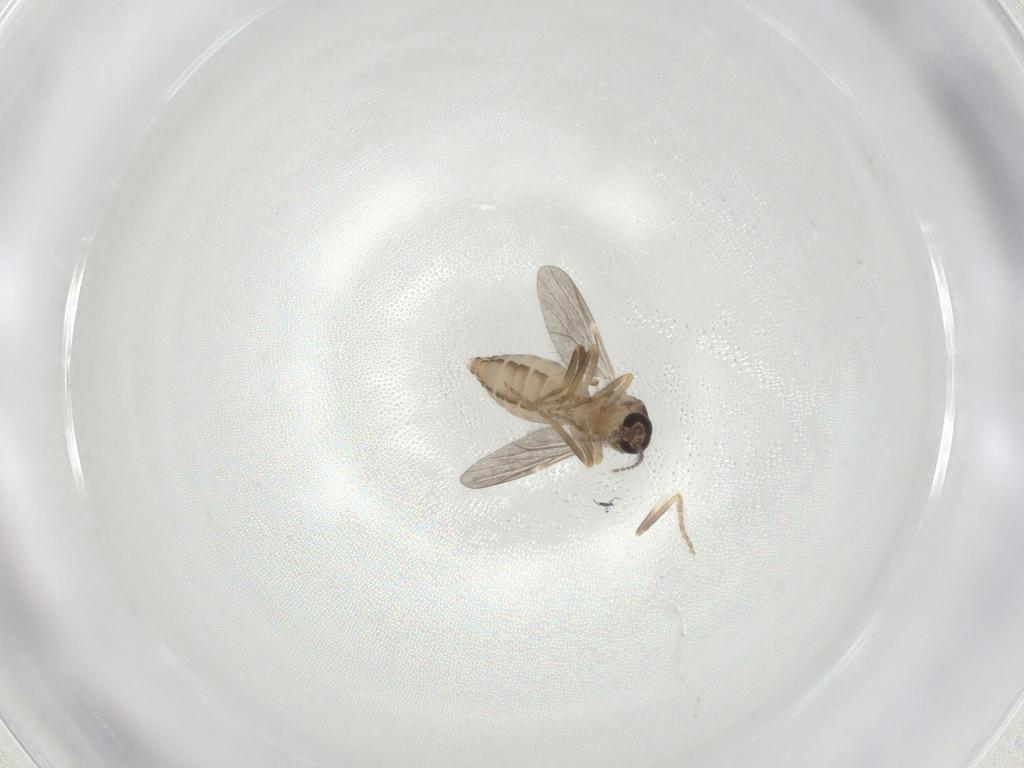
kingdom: Animalia
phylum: Arthropoda
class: Insecta
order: Diptera
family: Ceratopogonidae
